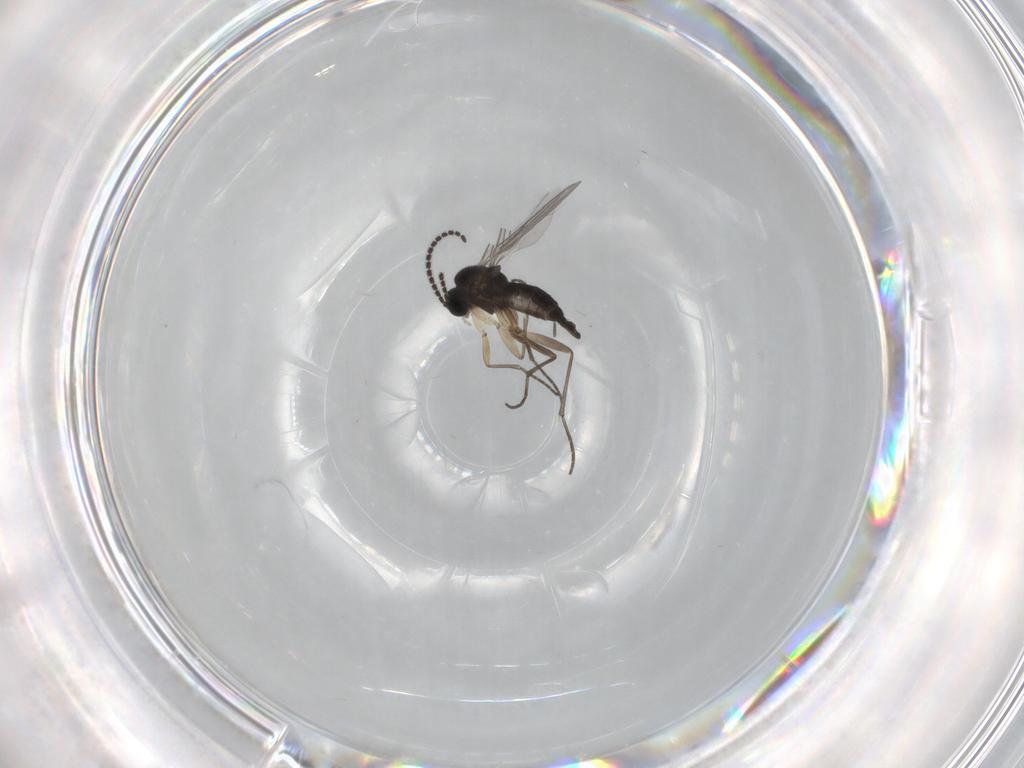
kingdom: Animalia
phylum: Arthropoda
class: Insecta
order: Diptera
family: Sciaridae
